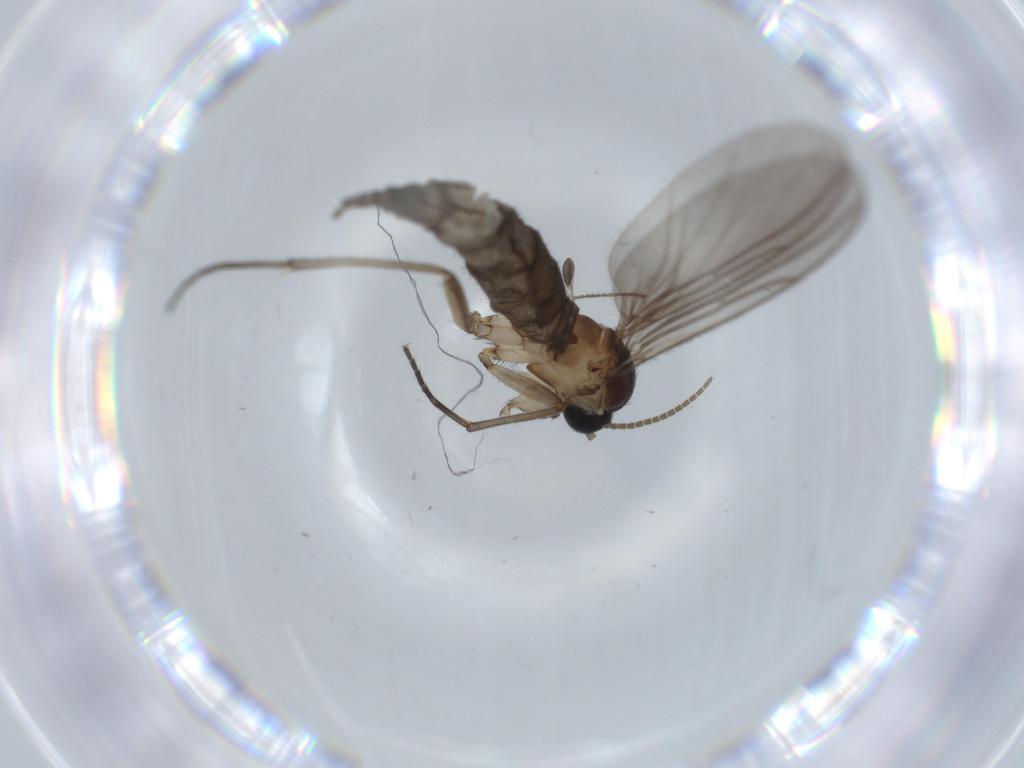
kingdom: Animalia
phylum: Arthropoda
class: Insecta
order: Diptera
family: Sciaridae
